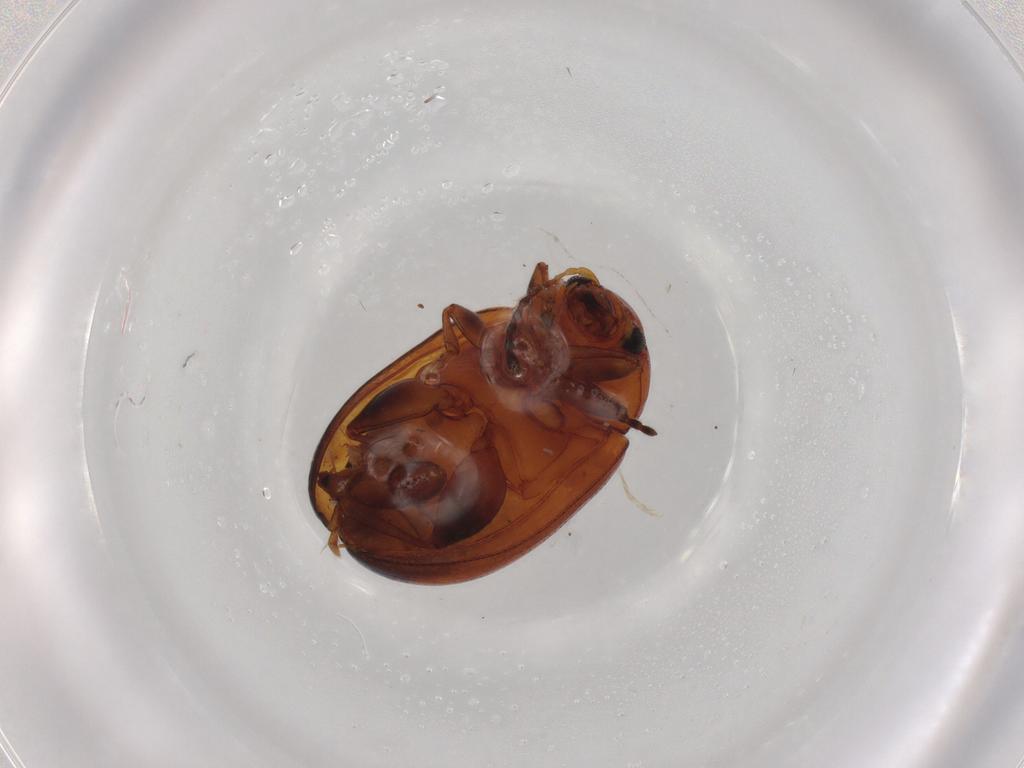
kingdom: Animalia
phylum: Arthropoda
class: Insecta
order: Coleoptera
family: Chrysomelidae
